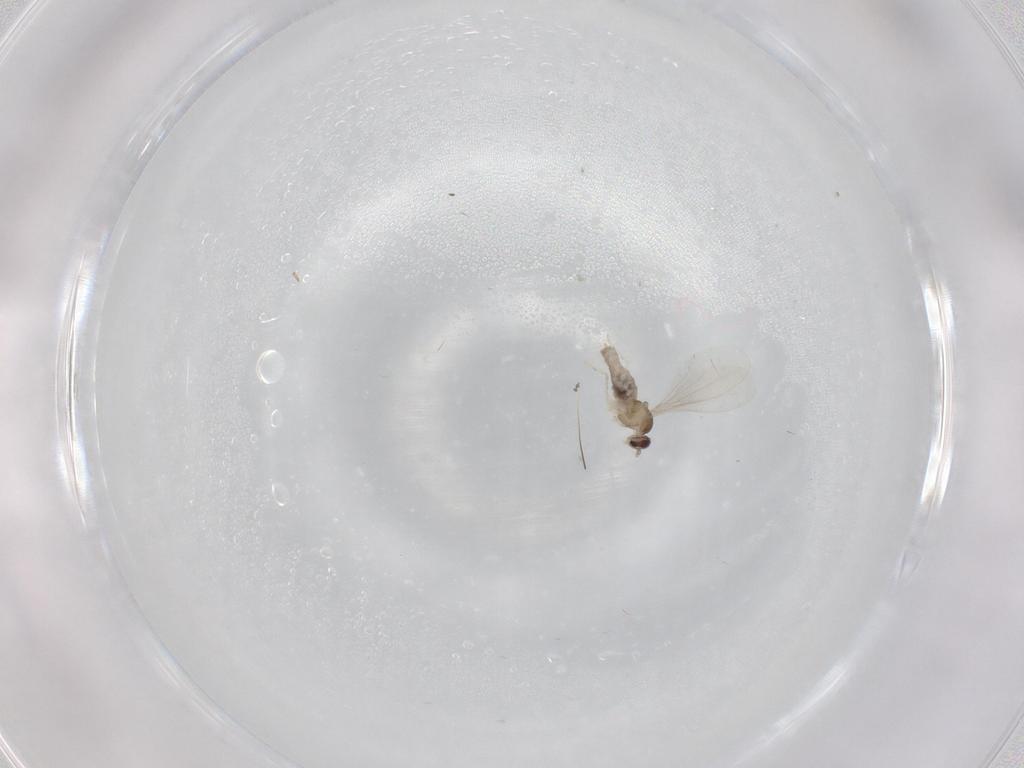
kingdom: Animalia
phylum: Arthropoda
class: Insecta
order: Diptera
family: Cecidomyiidae
